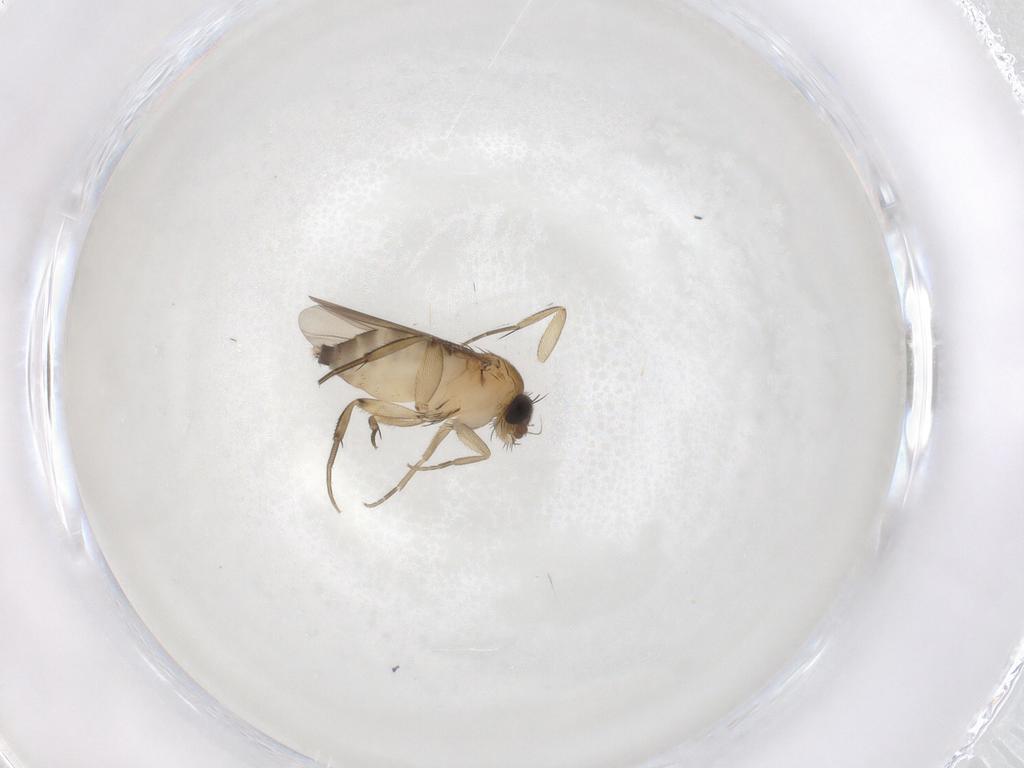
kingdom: Animalia
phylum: Arthropoda
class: Insecta
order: Diptera
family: Phoridae
